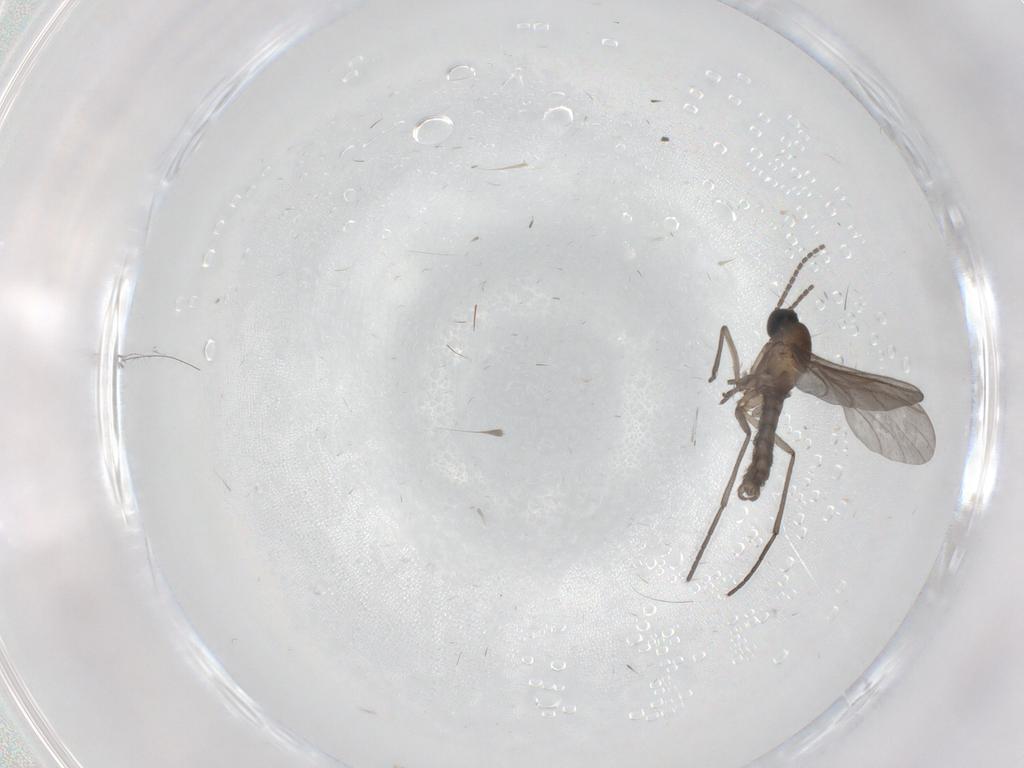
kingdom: Animalia
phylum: Arthropoda
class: Insecta
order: Diptera
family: Sciaridae
